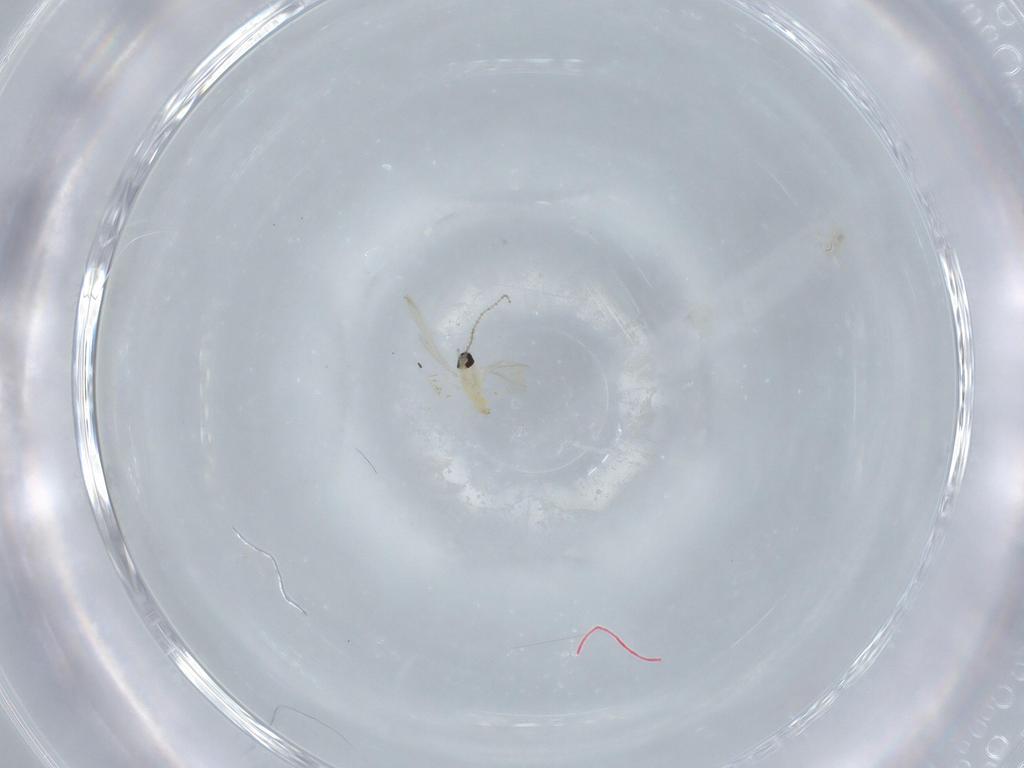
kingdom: Animalia
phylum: Arthropoda
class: Insecta
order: Diptera
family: Cecidomyiidae
